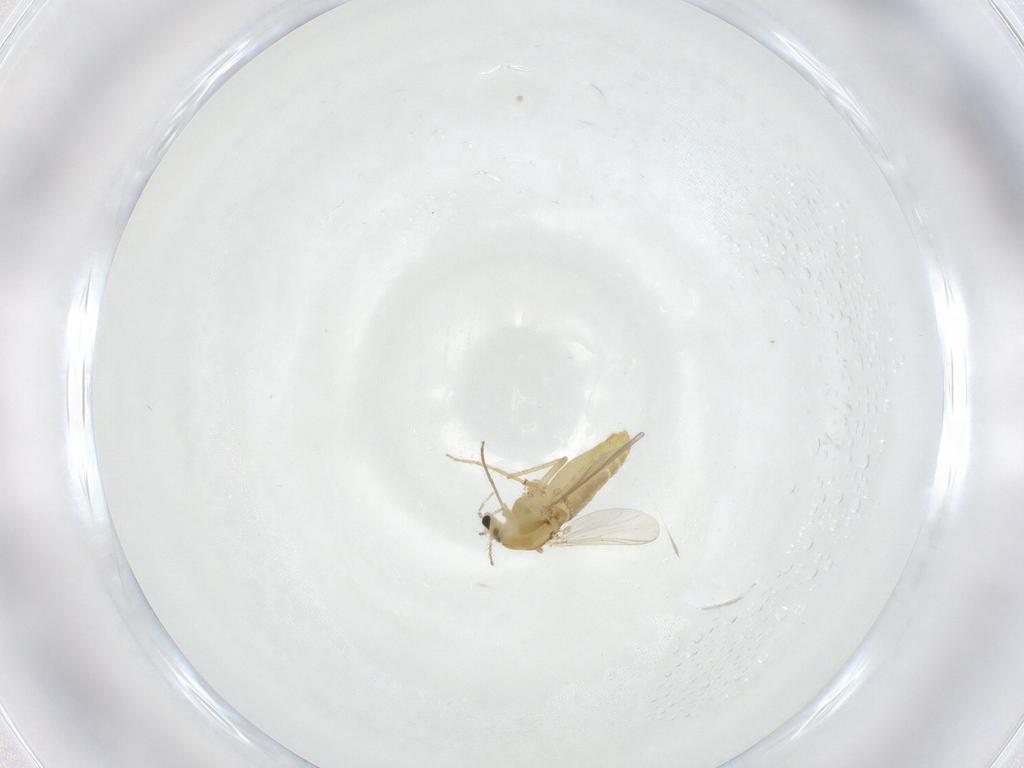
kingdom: Animalia
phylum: Arthropoda
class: Insecta
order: Diptera
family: Chironomidae
